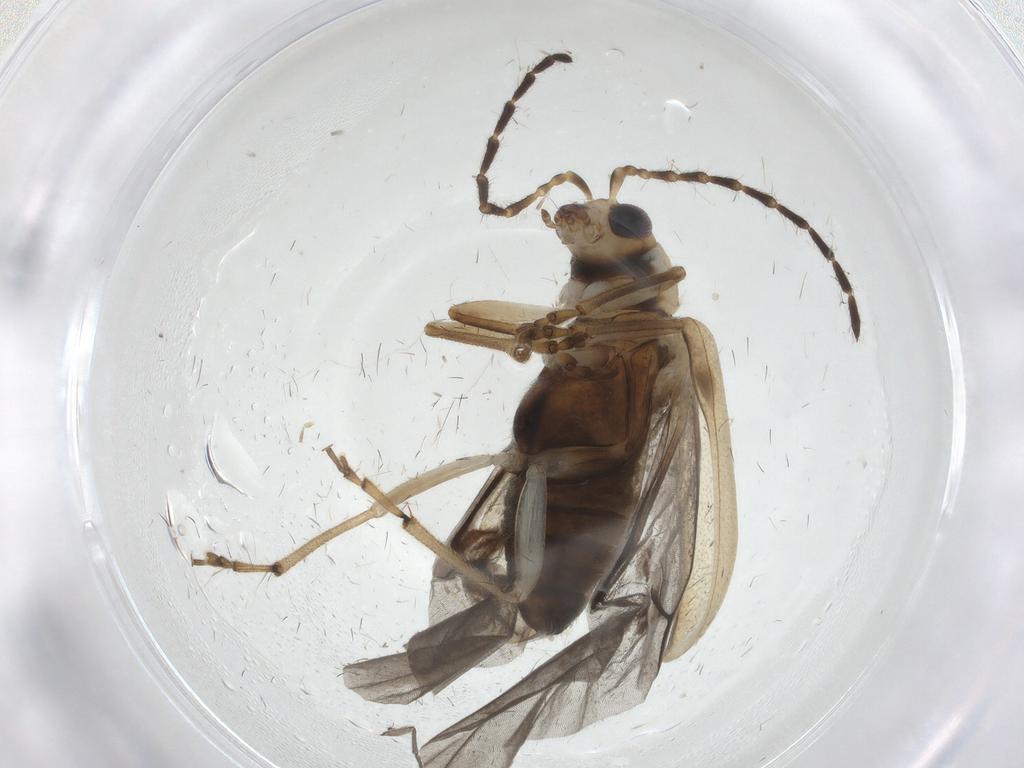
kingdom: Animalia
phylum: Arthropoda
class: Insecta
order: Coleoptera
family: Chrysomelidae
